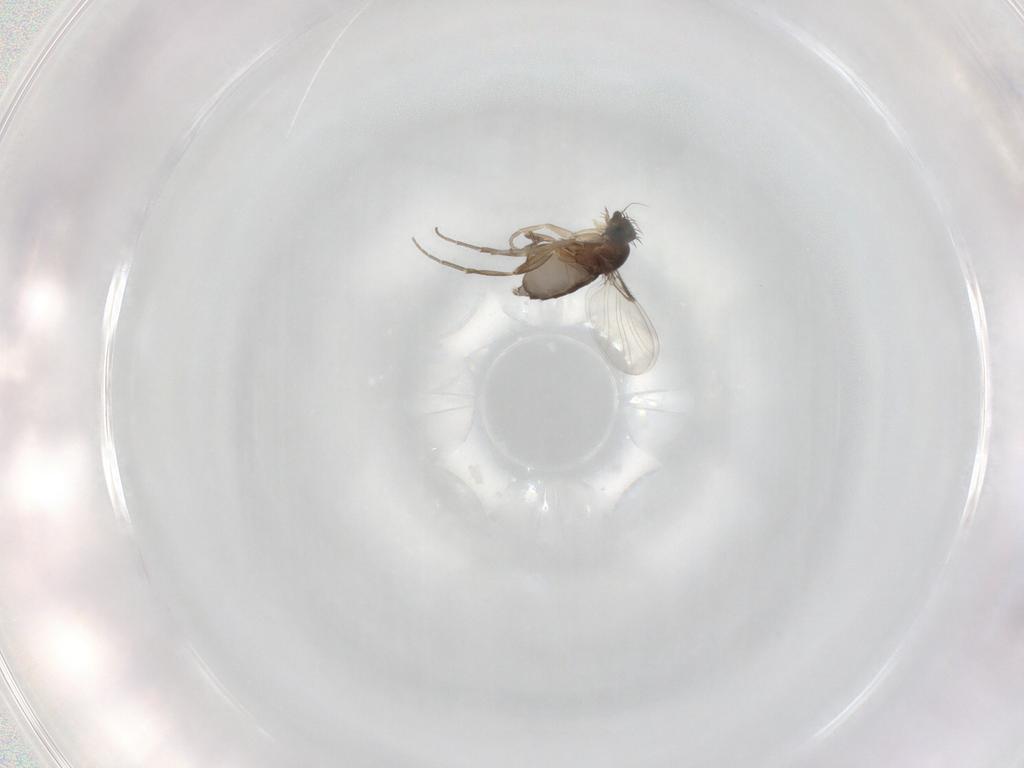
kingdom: Animalia
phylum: Arthropoda
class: Insecta
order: Diptera
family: Phoridae
